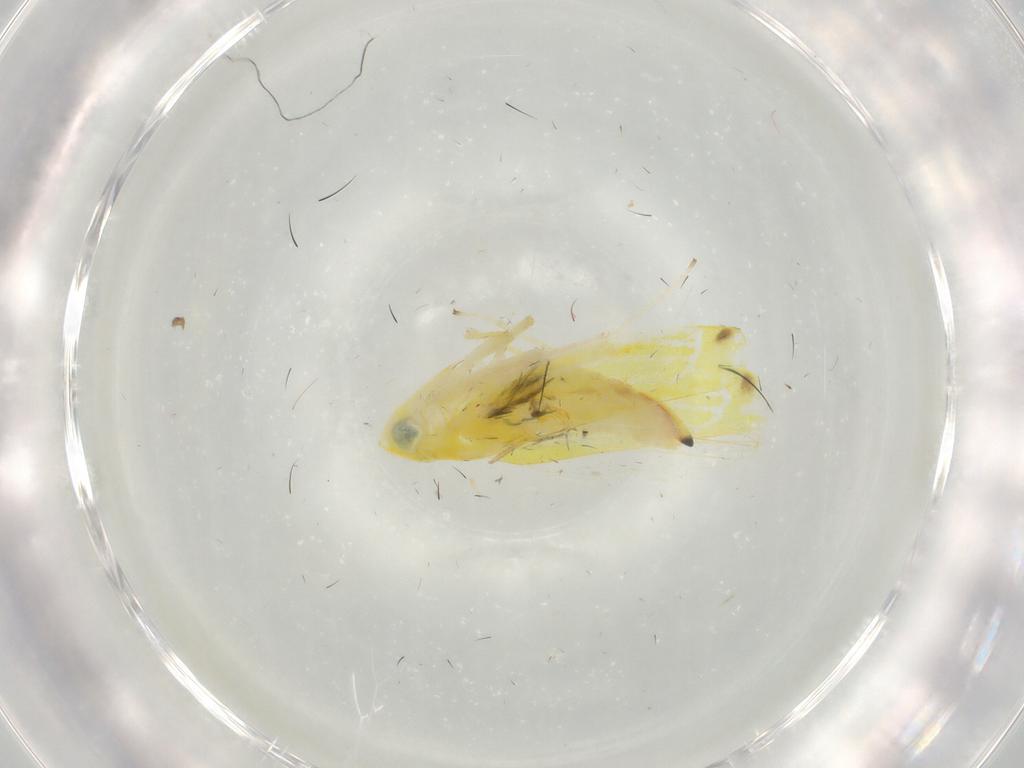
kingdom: Animalia
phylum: Arthropoda
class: Insecta
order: Hemiptera
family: Cicadellidae
